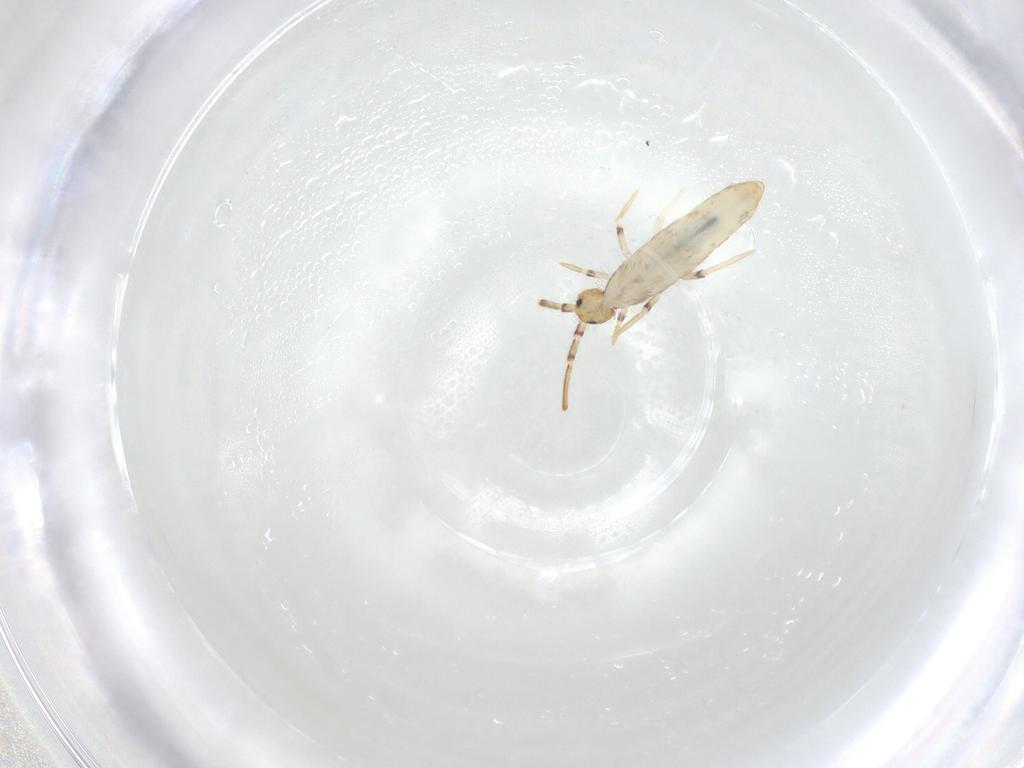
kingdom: Animalia
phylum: Arthropoda
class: Collembola
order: Entomobryomorpha
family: Entomobryidae
